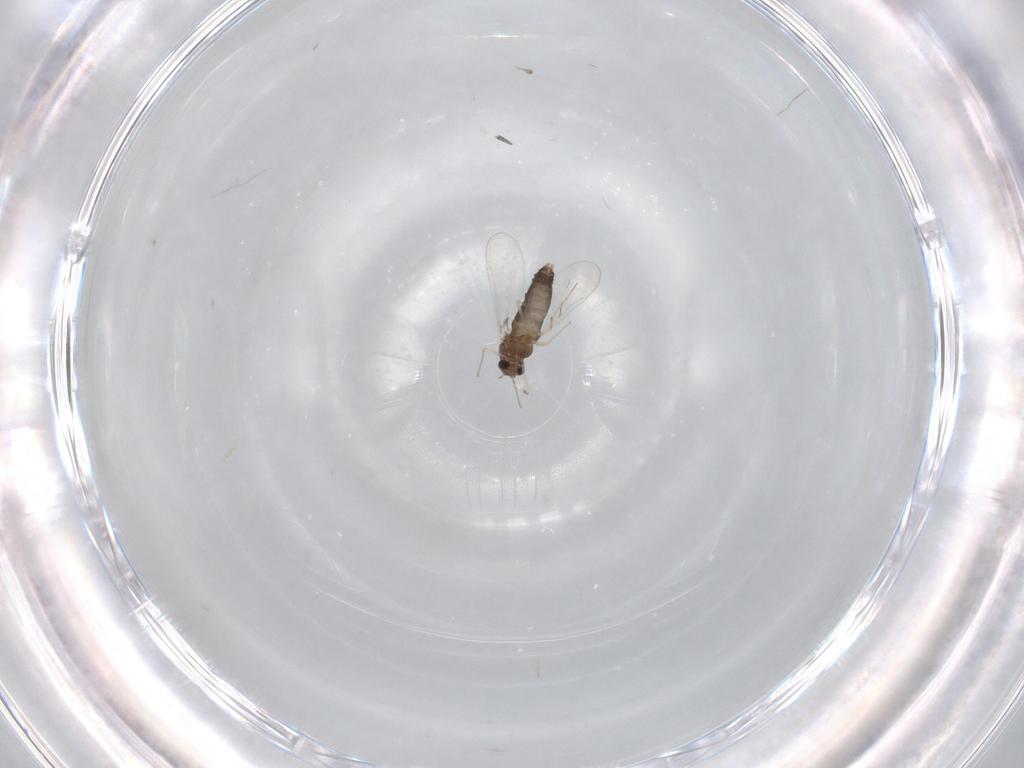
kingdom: Animalia
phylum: Arthropoda
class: Insecta
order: Diptera
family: Chironomidae
